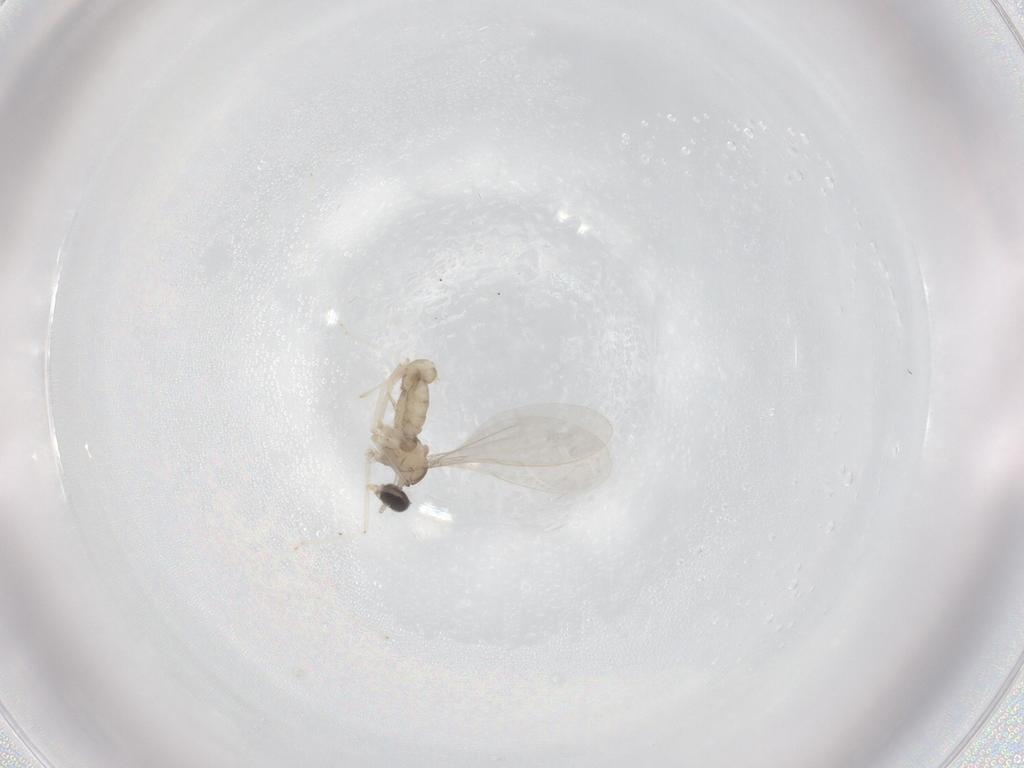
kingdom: Animalia
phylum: Arthropoda
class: Insecta
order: Diptera
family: Cecidomyiidae
